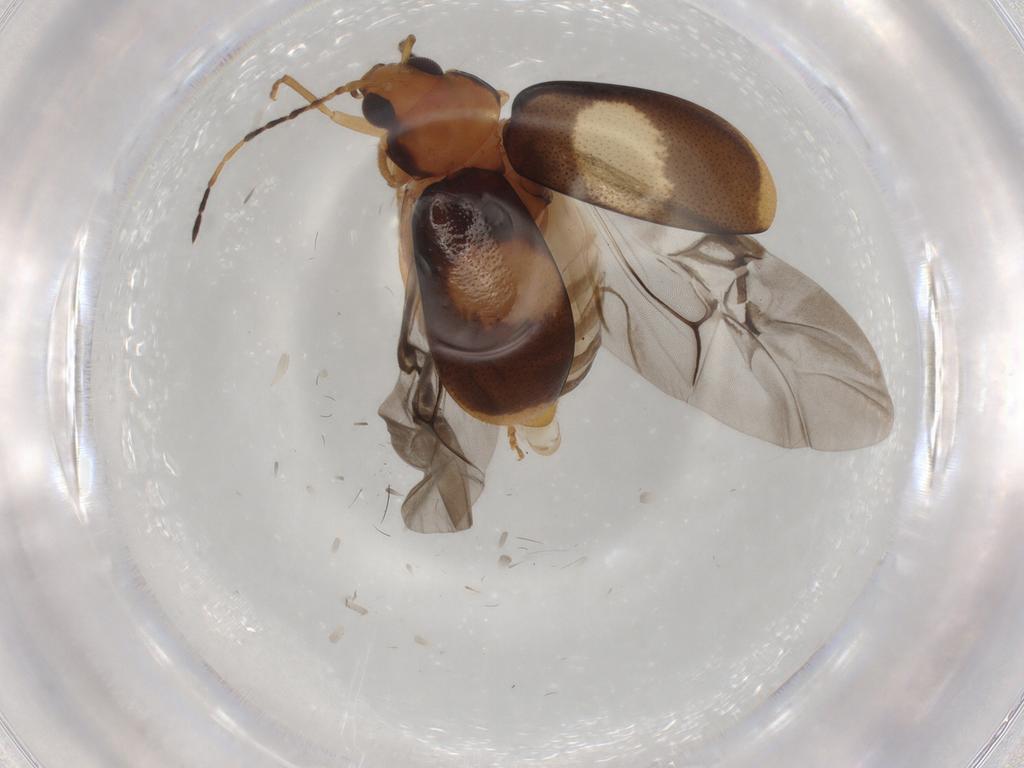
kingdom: Animalia
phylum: Arthropoda
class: Insecta
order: Coleoptera
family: Chrysomelidae
